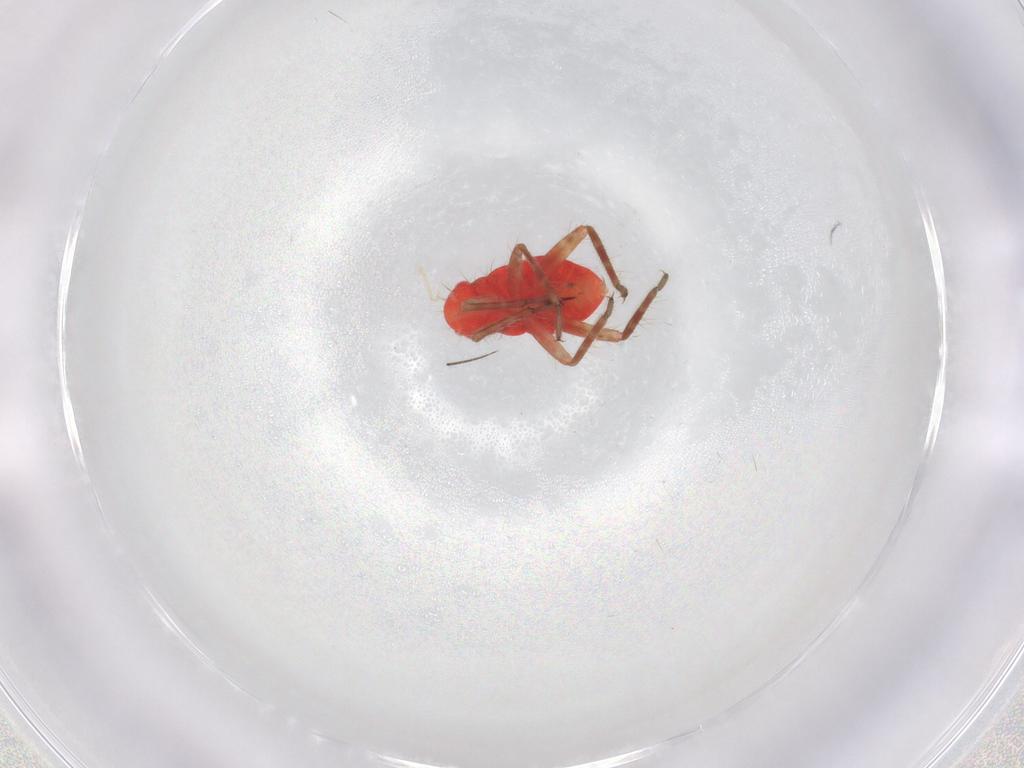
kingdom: Animalia
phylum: Arthropoda
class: Insecta
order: Hemiptera
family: Miridae
